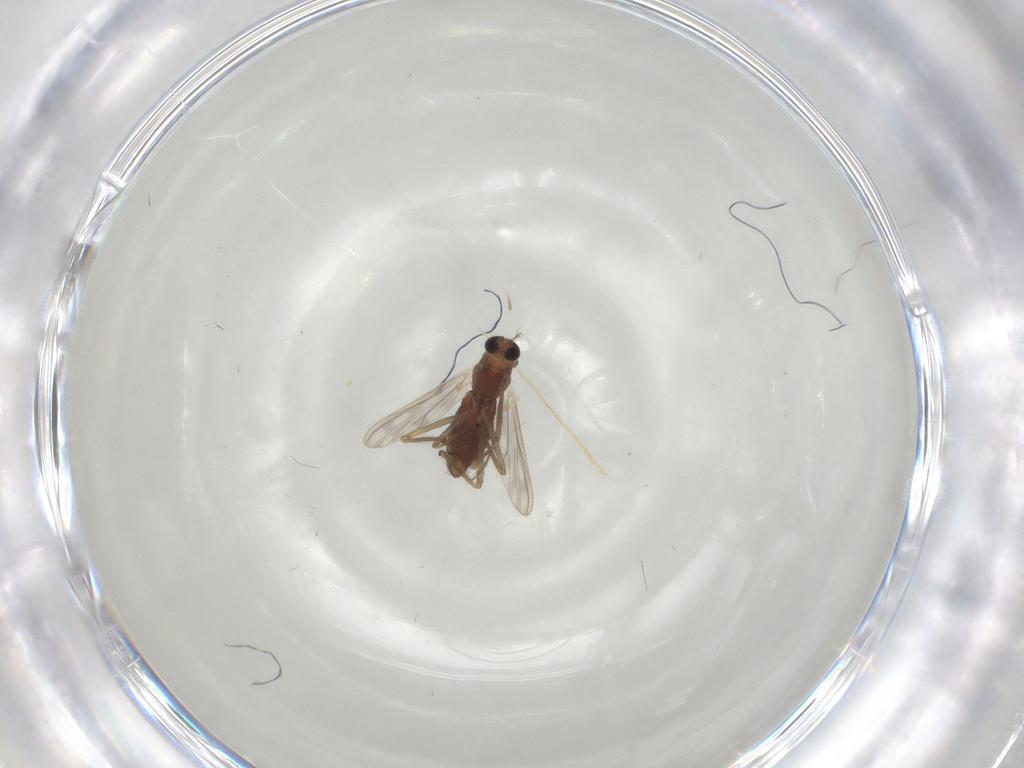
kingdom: Animalia
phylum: Arthropoda
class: Insecta
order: Diptera
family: Chironomidae
